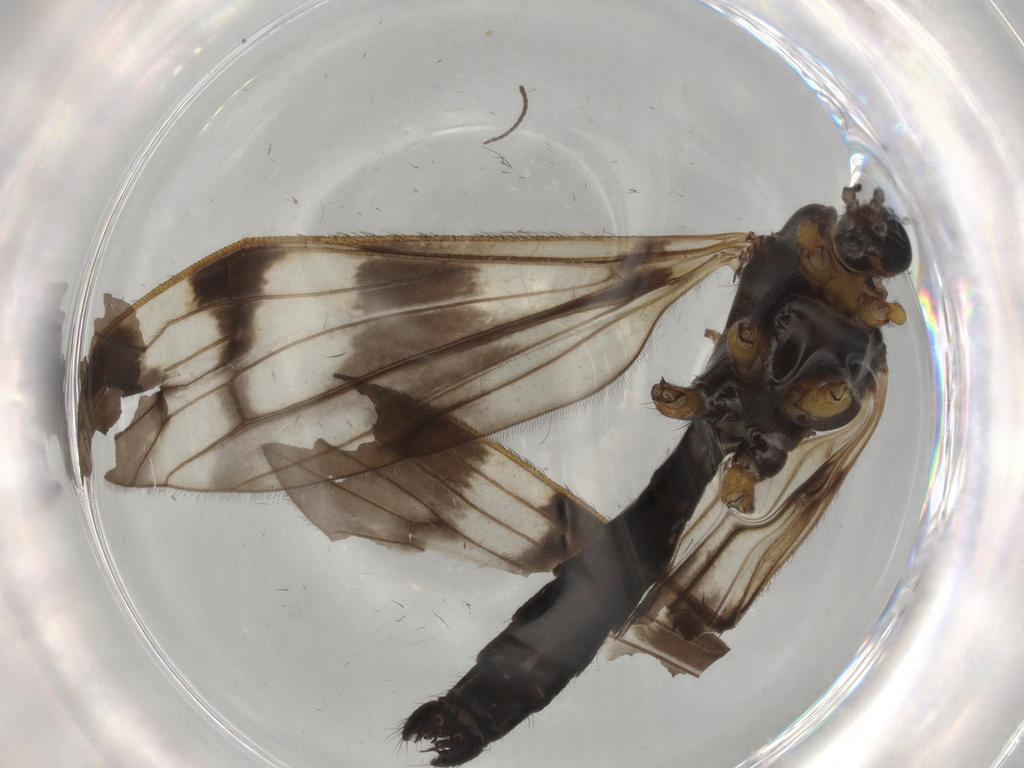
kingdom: Animalia
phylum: Arthropoda
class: Insecta
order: Diptera
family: Limoniidae
